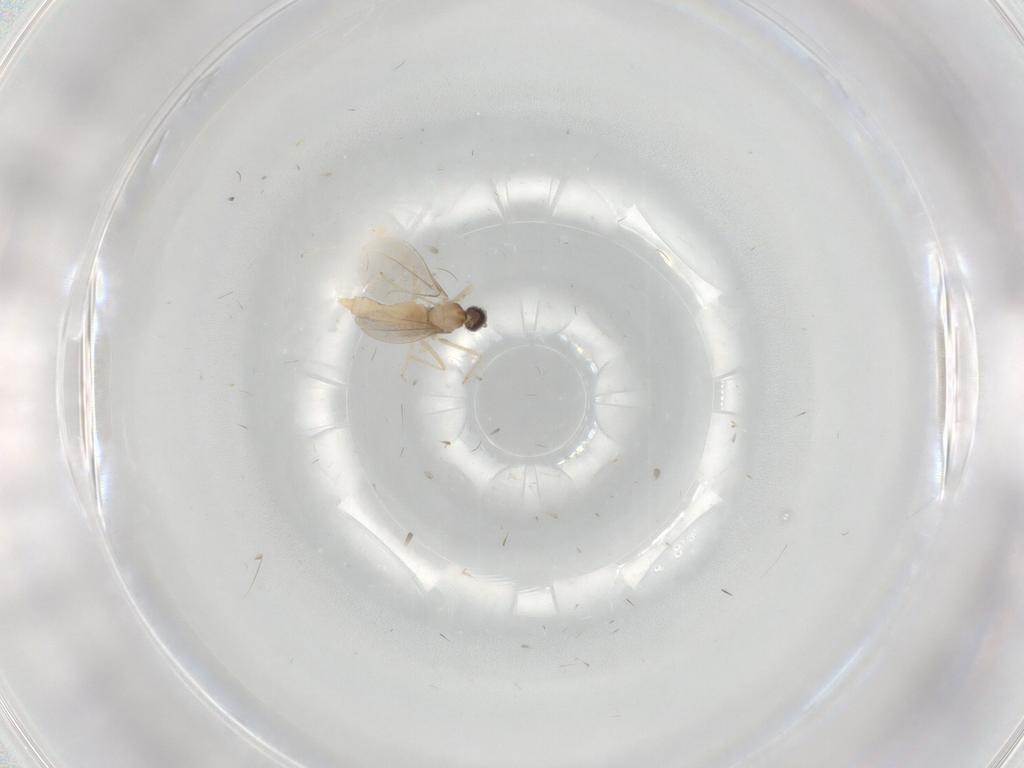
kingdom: Animalia
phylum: Arthropoda
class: Insecta
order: Diptera
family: Cecidomyiidae
